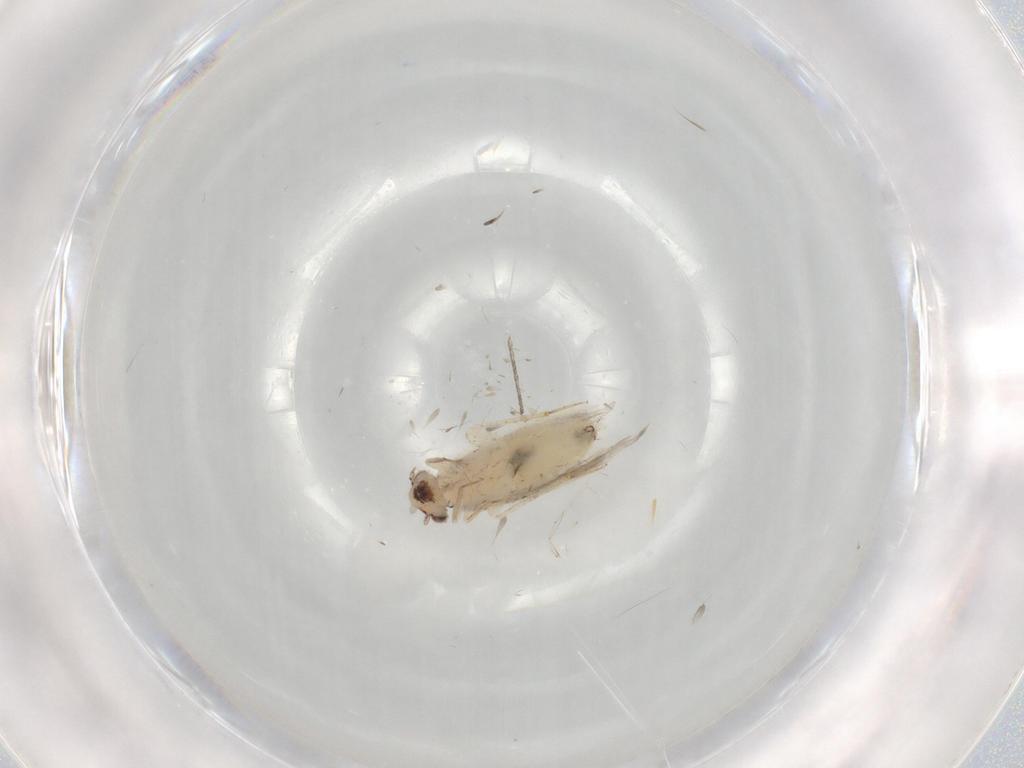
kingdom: Animalia
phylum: Arthropoda
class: Insecta
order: Psocodea
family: Lepidopsocidae
